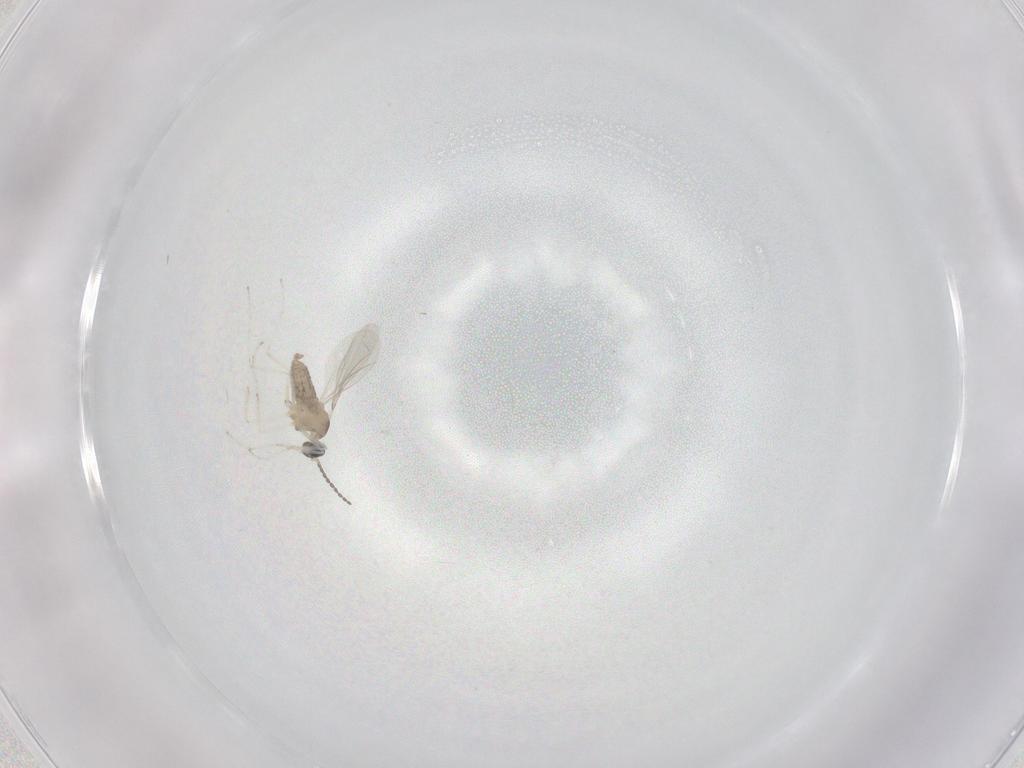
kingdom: Animalia
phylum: Arthropoda
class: Insecta
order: Diptera
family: Cecidomyiidae
